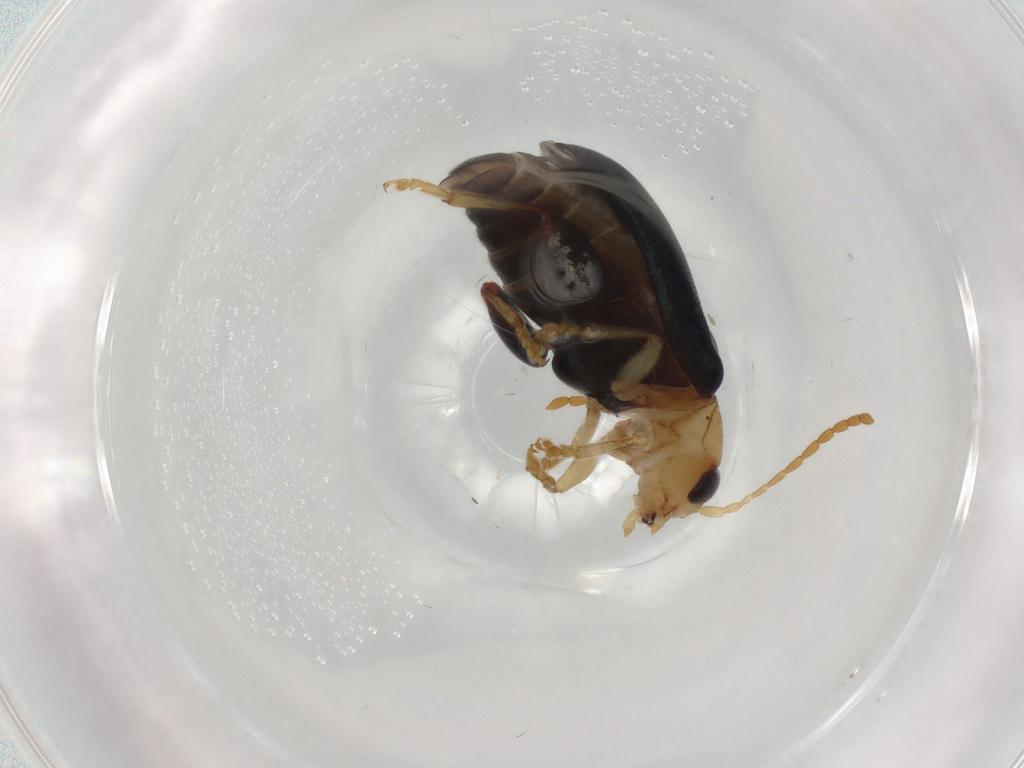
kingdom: Animalia
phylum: Arthropoda
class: Insecta
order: Coleoptera
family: Chrysomelidae
